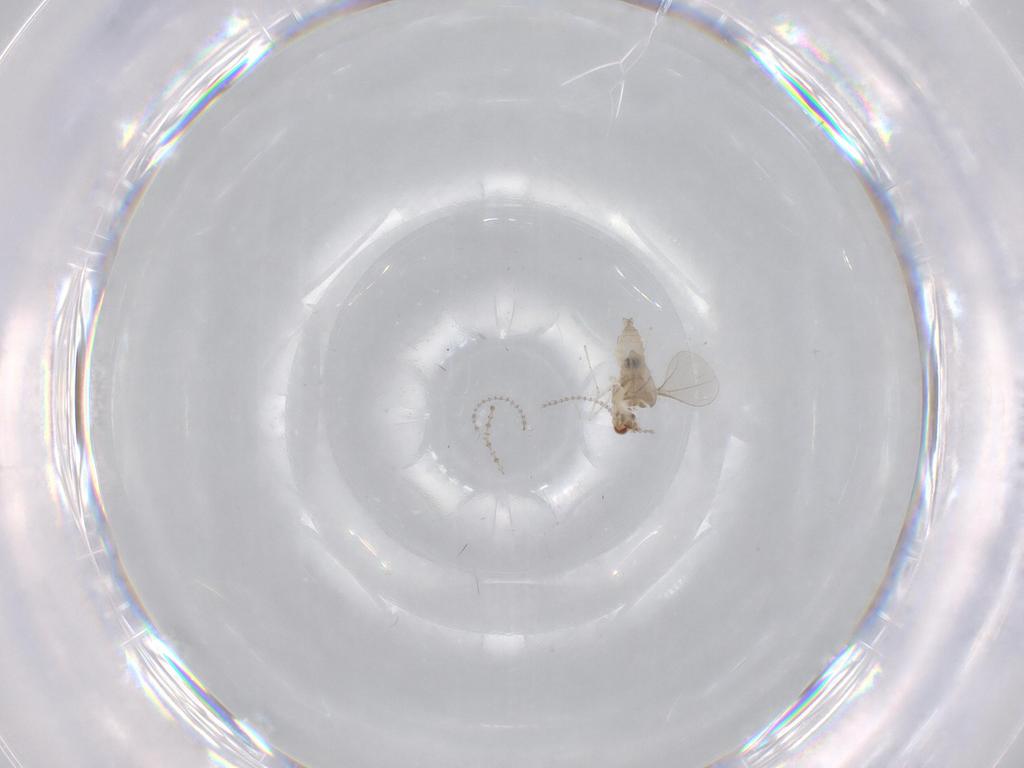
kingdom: Animalia
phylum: Arthropoda
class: Insecta
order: Diptera
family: Cecidomyiidae
